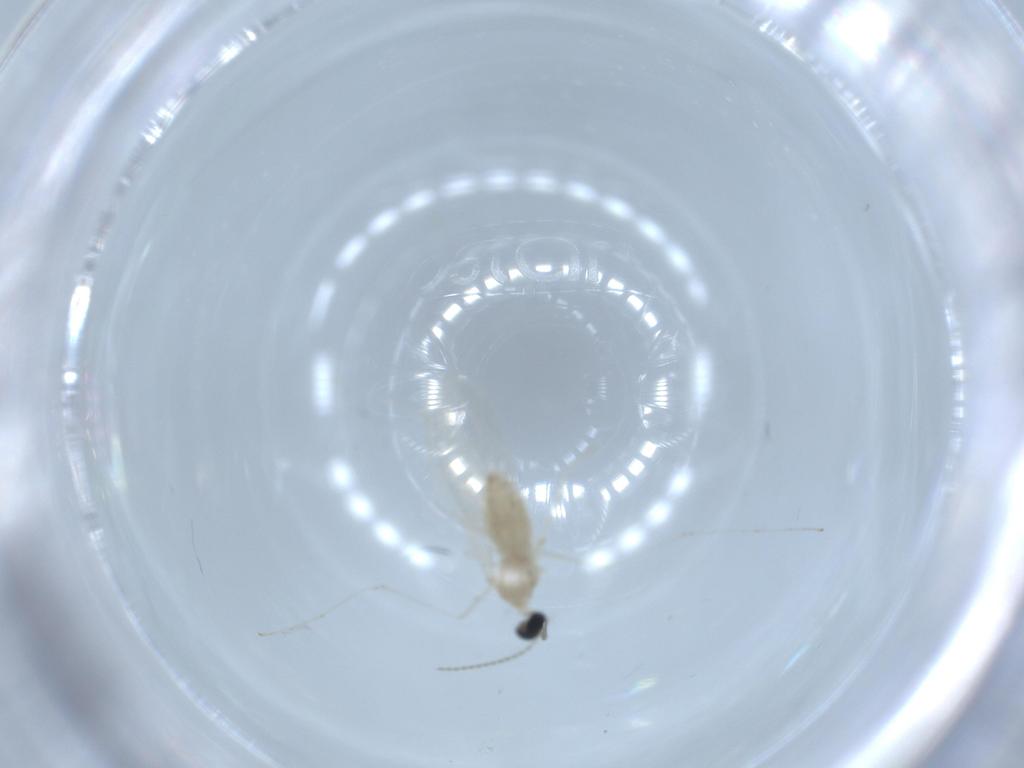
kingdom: Animalia
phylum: Arthropoda
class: Insecta
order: Diptera
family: Cecidomyiidae
